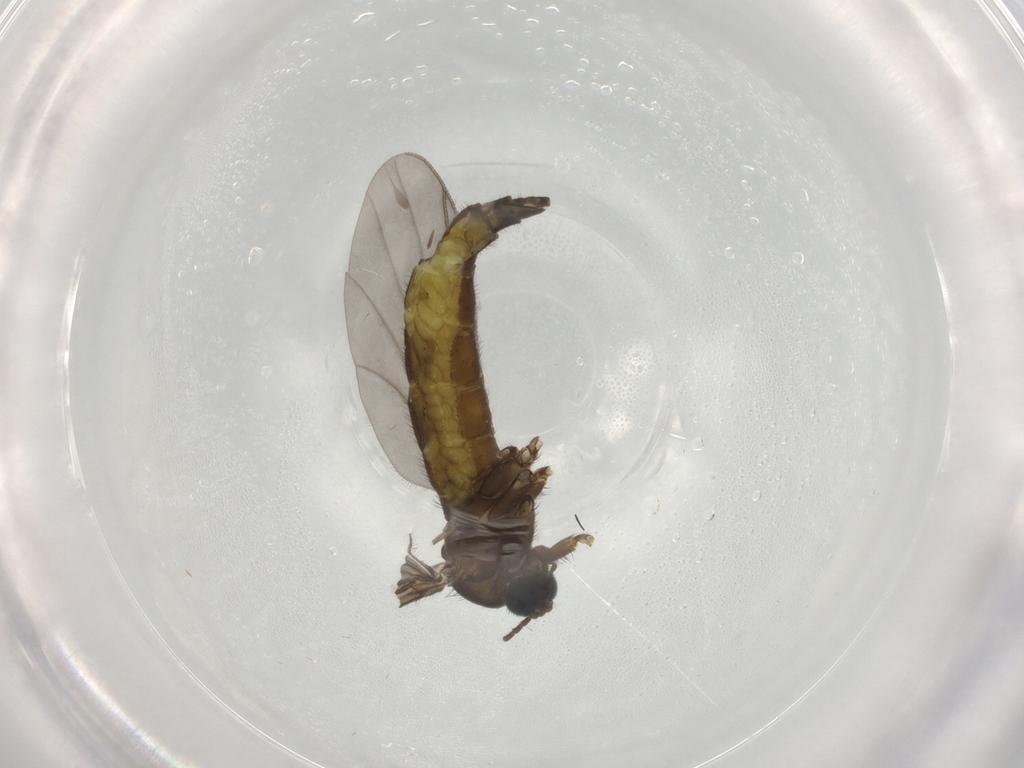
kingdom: Animalia
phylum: Arthropoda
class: Insecta
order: Diptera
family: Sciaridae
